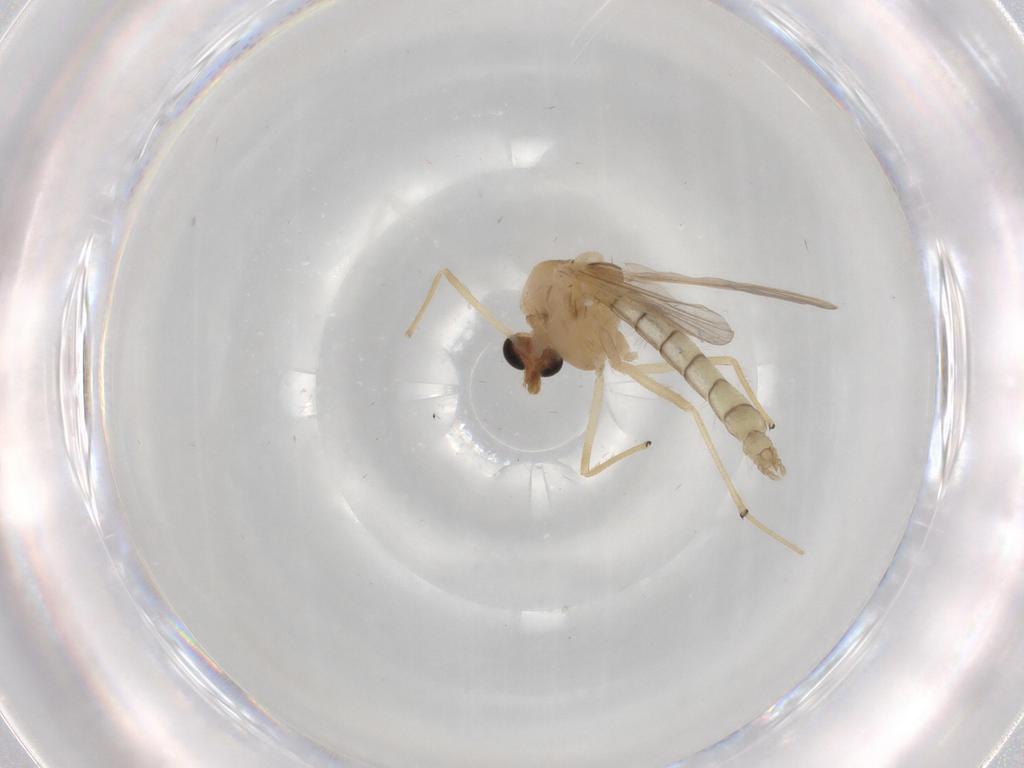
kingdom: Animalia
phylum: Arthropoda
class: Insecta
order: Diptera
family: Chironomidae
